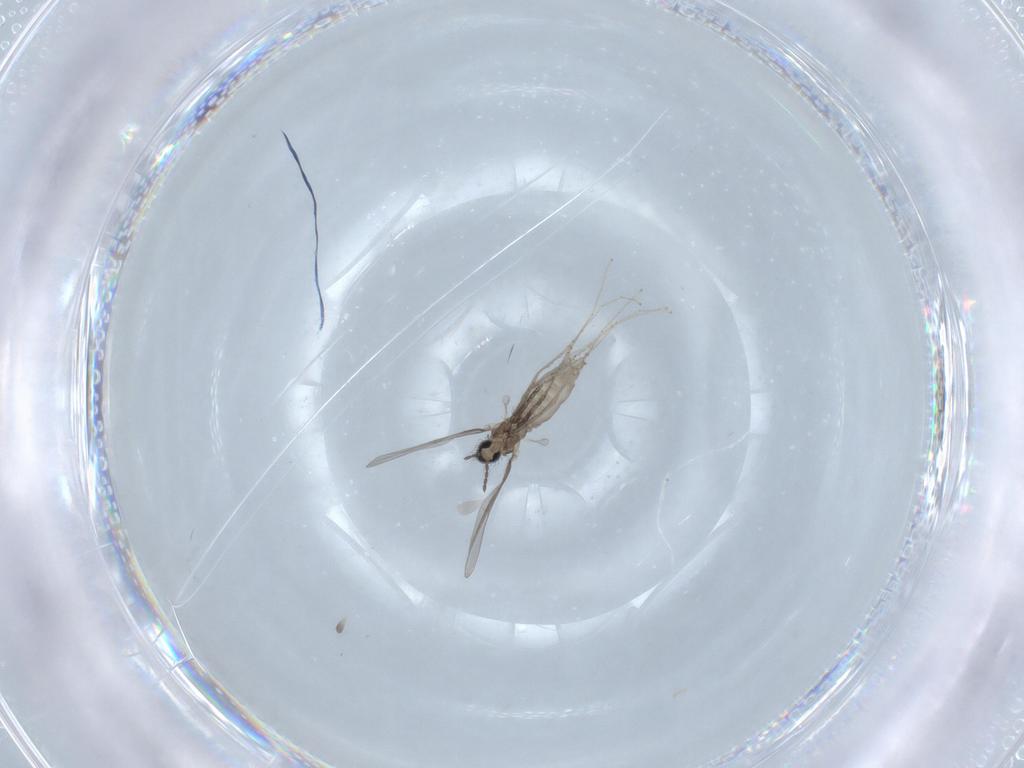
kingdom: Animalia
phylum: Arthropoda
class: Insecta
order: Diptera
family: Cecidomyiidae
